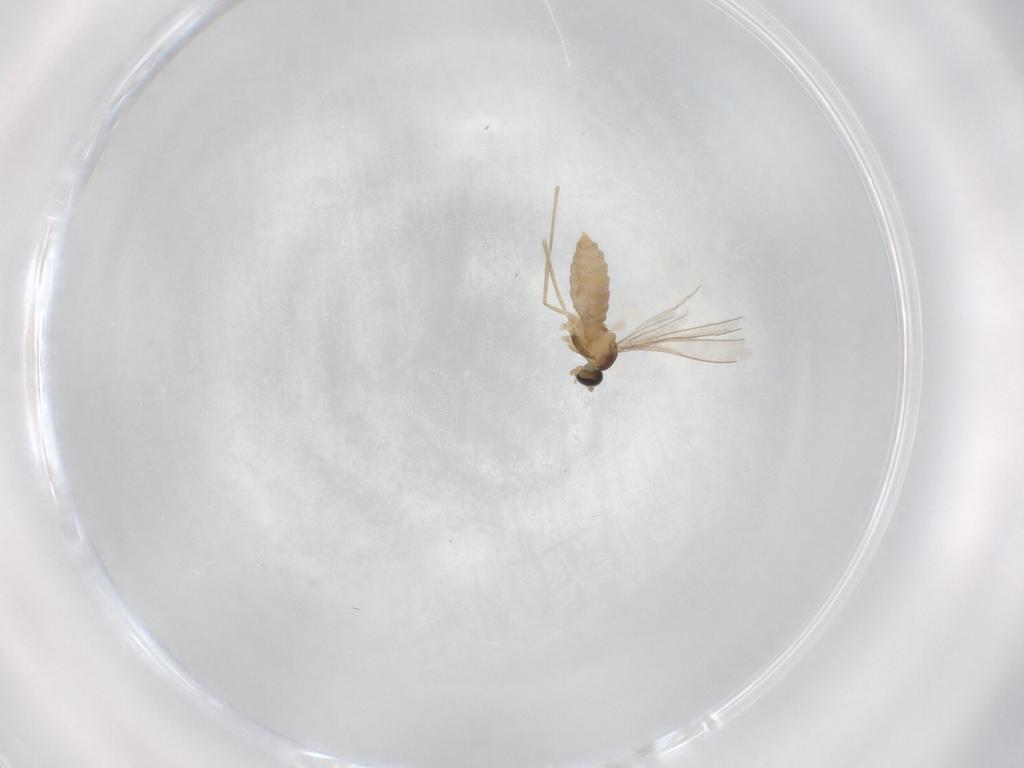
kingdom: Animalia
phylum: Arthropoda
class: Insecta
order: Diptera
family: Cecidomyiidae
